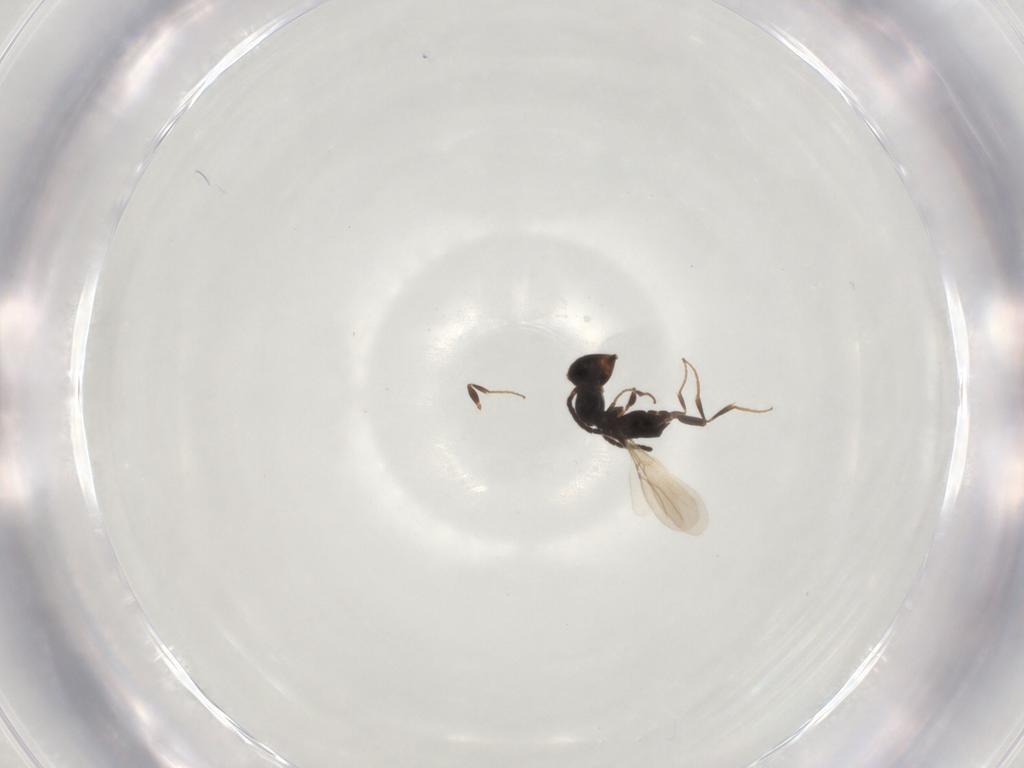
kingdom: Animalia
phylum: Arthropoda
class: Insecta
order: Hymenoptera
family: Bethylidae
